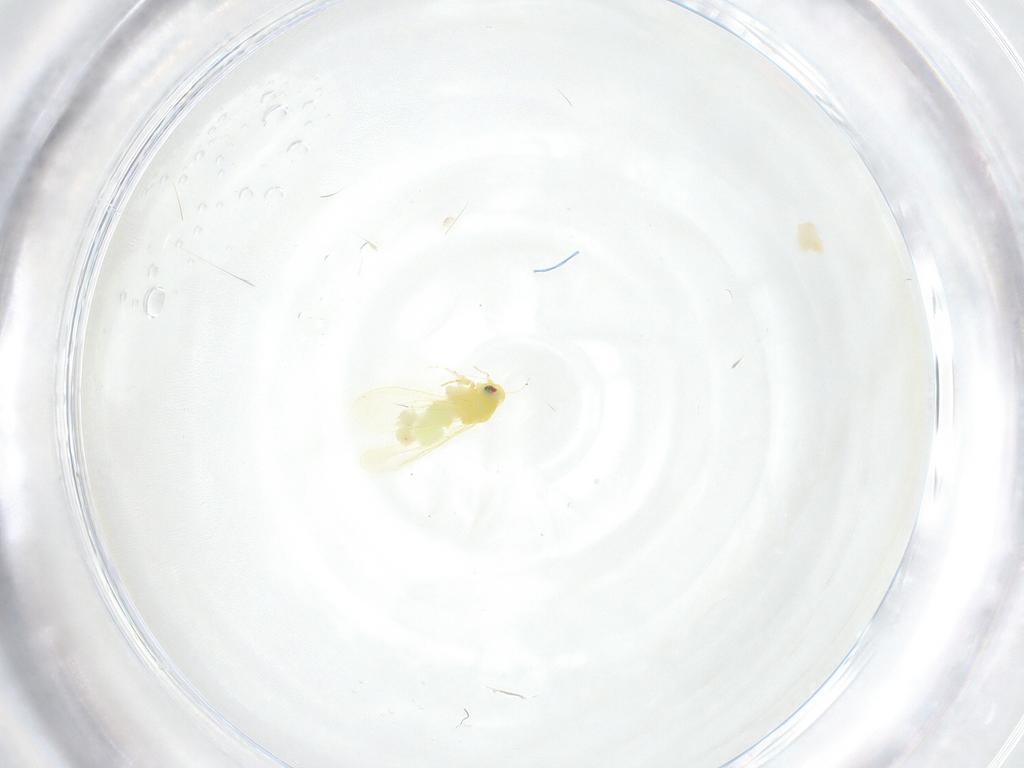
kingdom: Animalia
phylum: Arthropoda
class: Insecta
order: Hemiptera
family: Aleyrodidae
